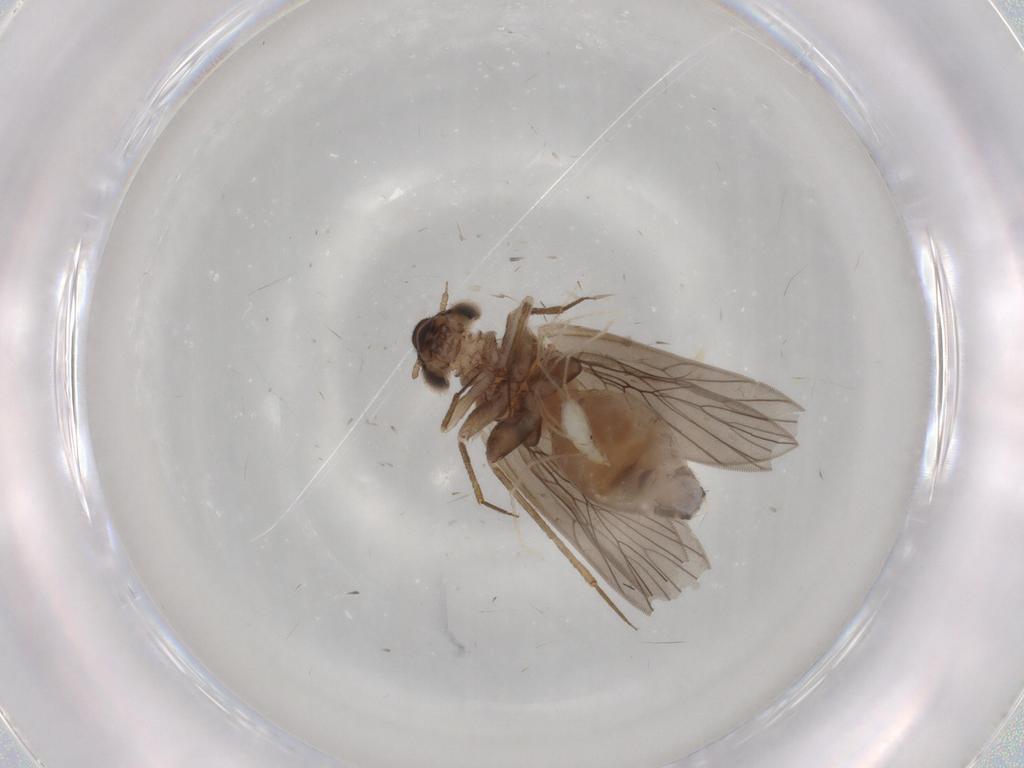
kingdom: Animalia
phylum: Arthropoda
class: Insecta
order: Psocodea
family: Lepidopsocidae
